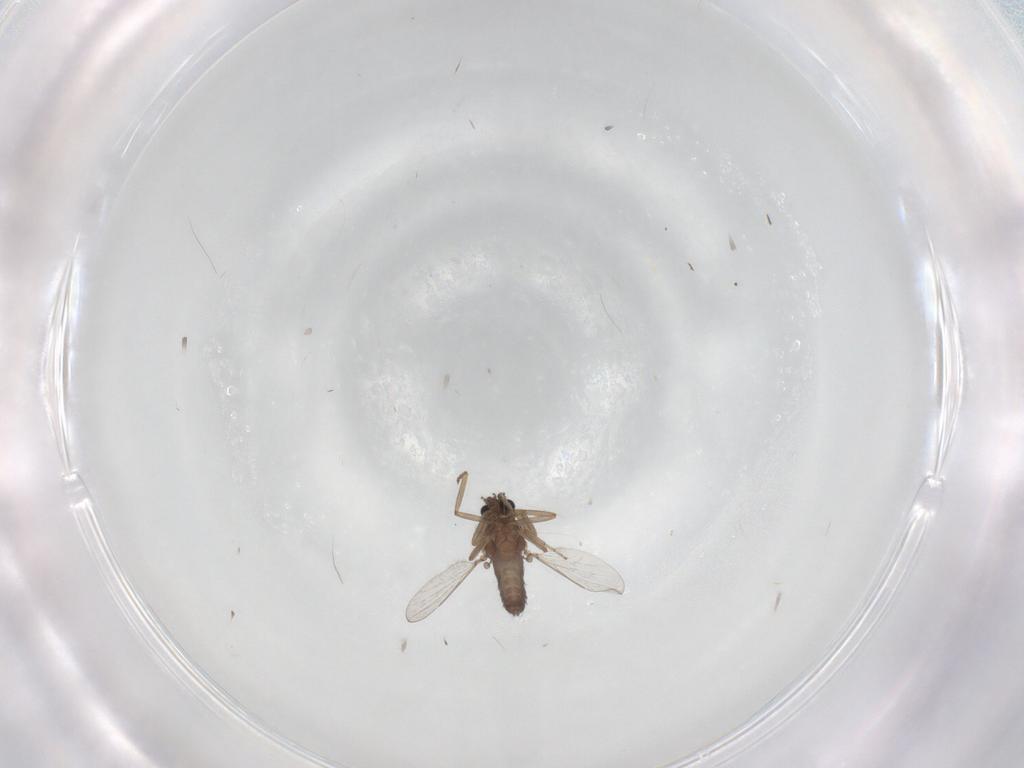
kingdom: Animalia
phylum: Arthropoda
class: Insecta
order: Diptera
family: Ceratopogonidae
